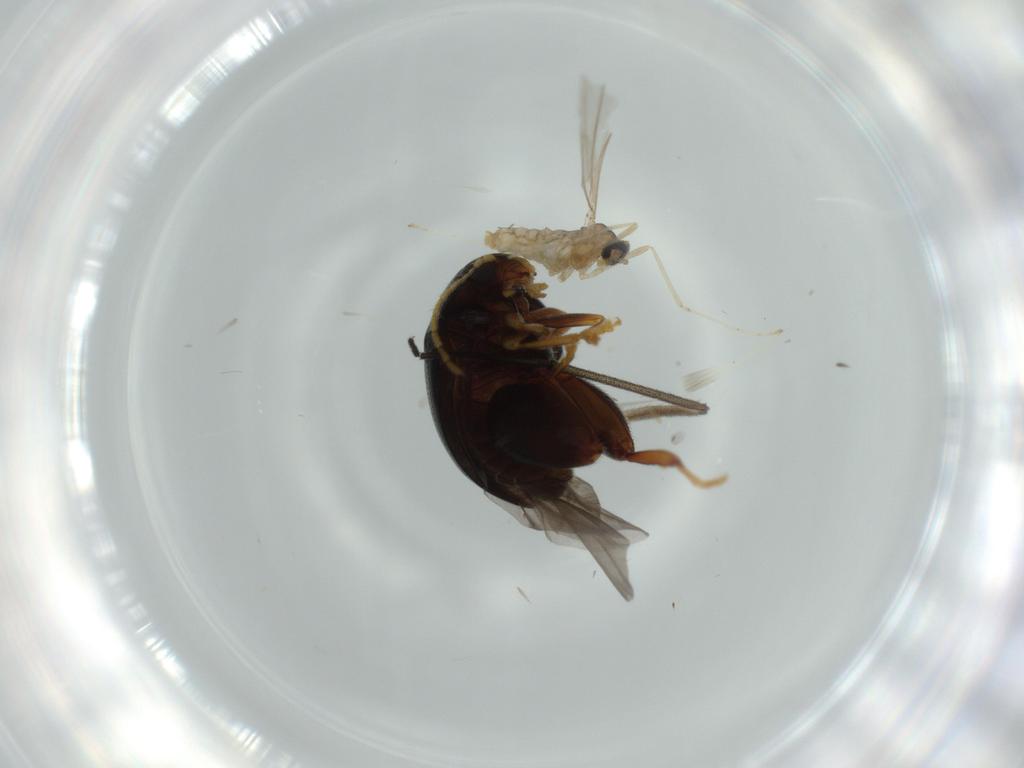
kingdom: Animalia
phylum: Arthropoda
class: Insecta
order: Coleoptera
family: Chrysomelidae
